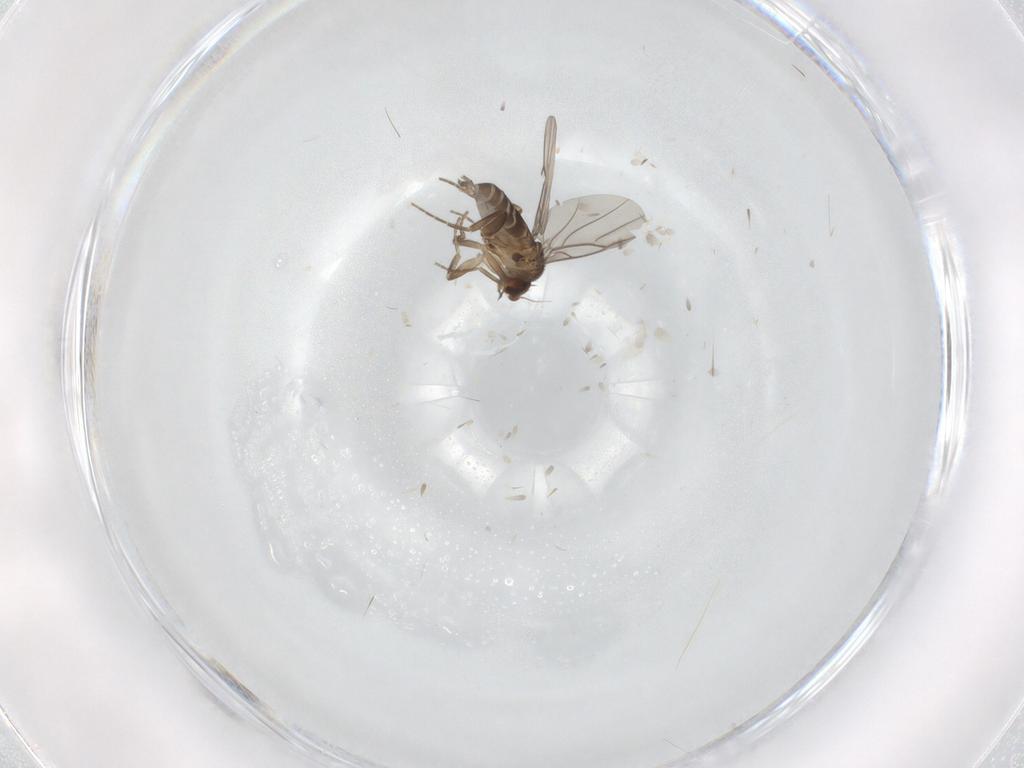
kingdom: Animalia
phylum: Arthropoda
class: Insecta
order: Diptera
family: Phoridae
